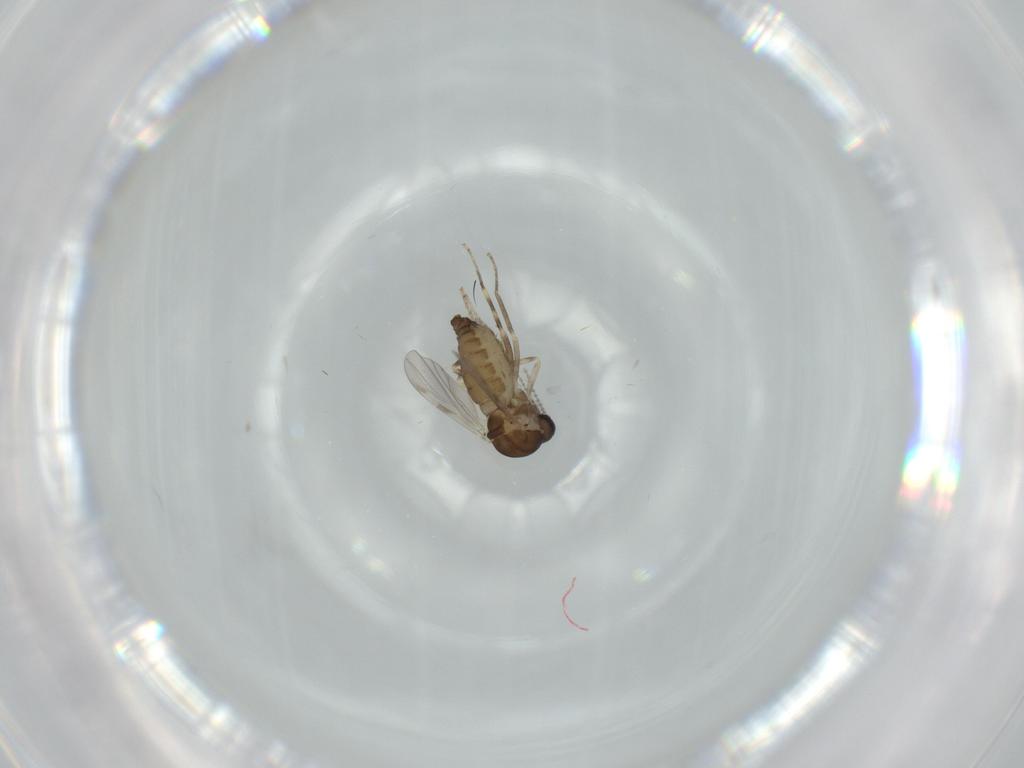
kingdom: Animalia
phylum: Arthropoda
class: Insecta
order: Diptera
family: Ceratopogonidae
